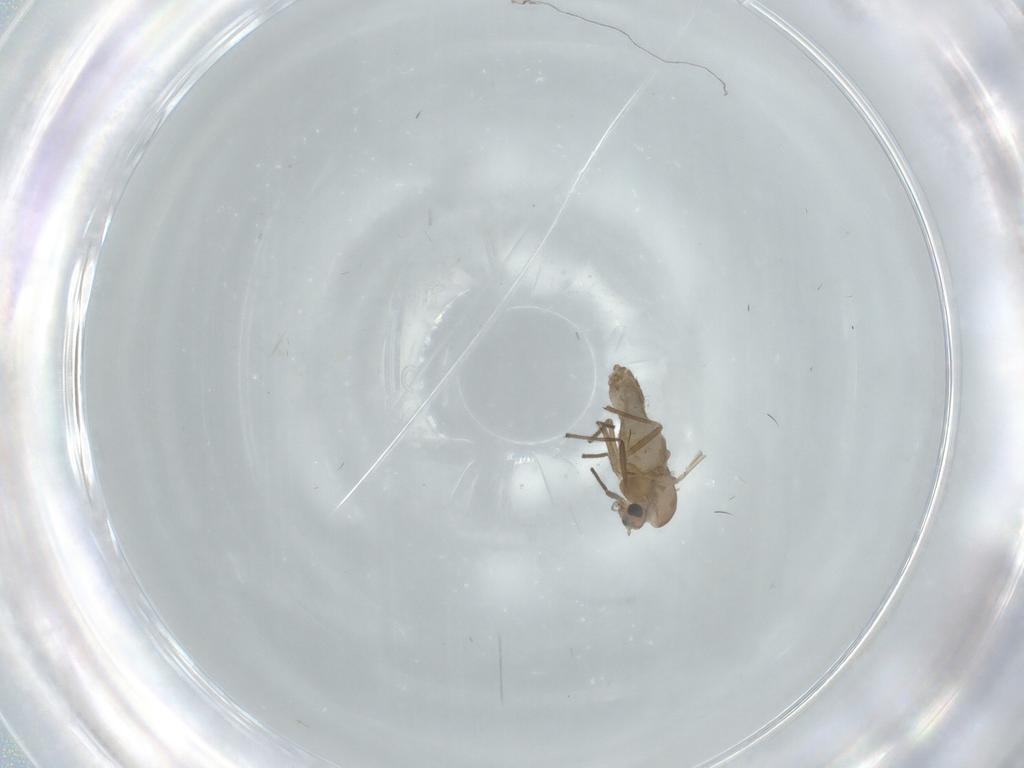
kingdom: Animalia
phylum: Arthropoda
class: Insecta
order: Diptera
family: Chironomidae
